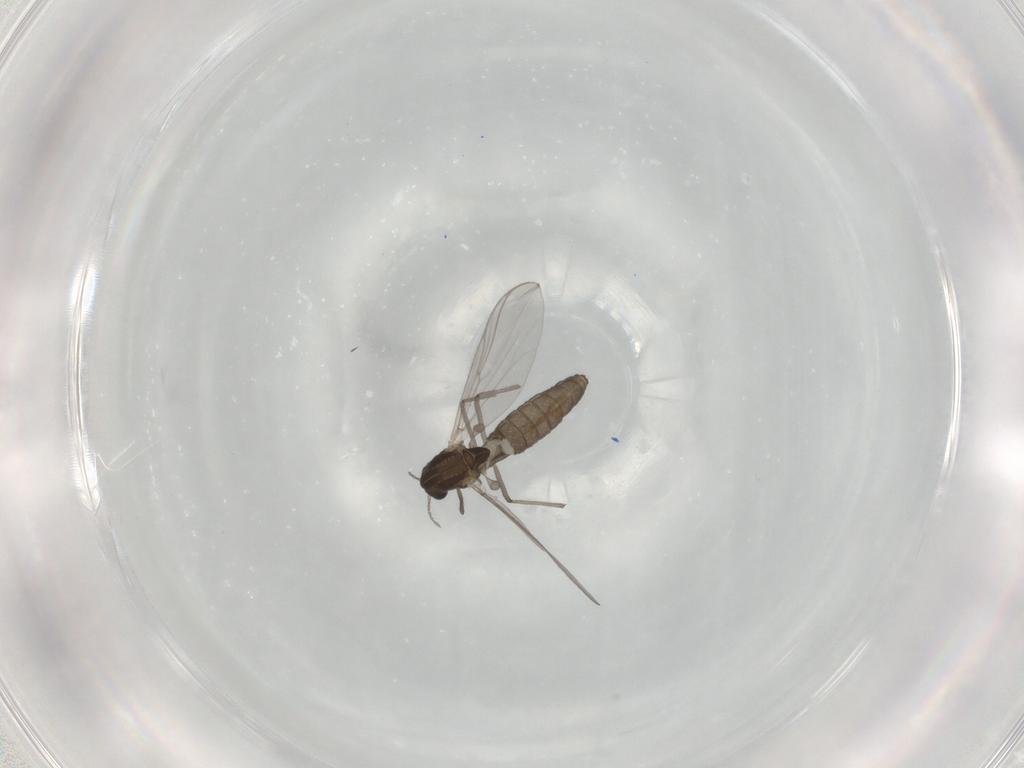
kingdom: Animalia
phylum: Arthropoda
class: Insecta
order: Diptera
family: Chironomidae
